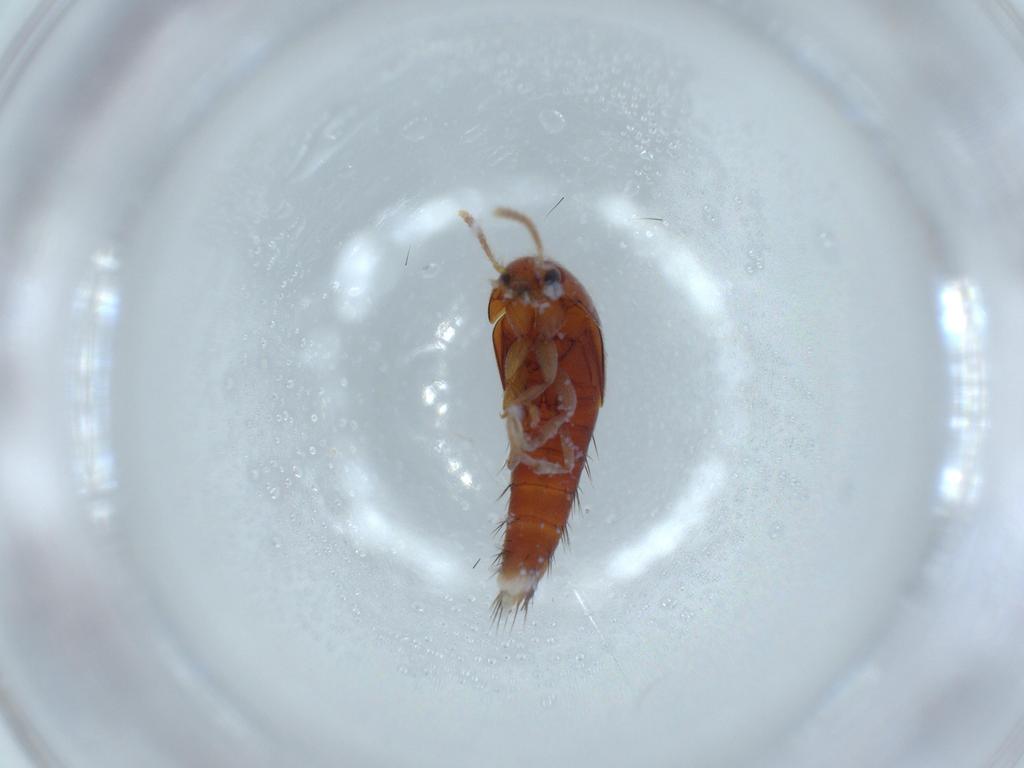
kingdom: Animalia
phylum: Arthropoda
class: Insecta
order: Coleoptera
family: Staphylinidae
